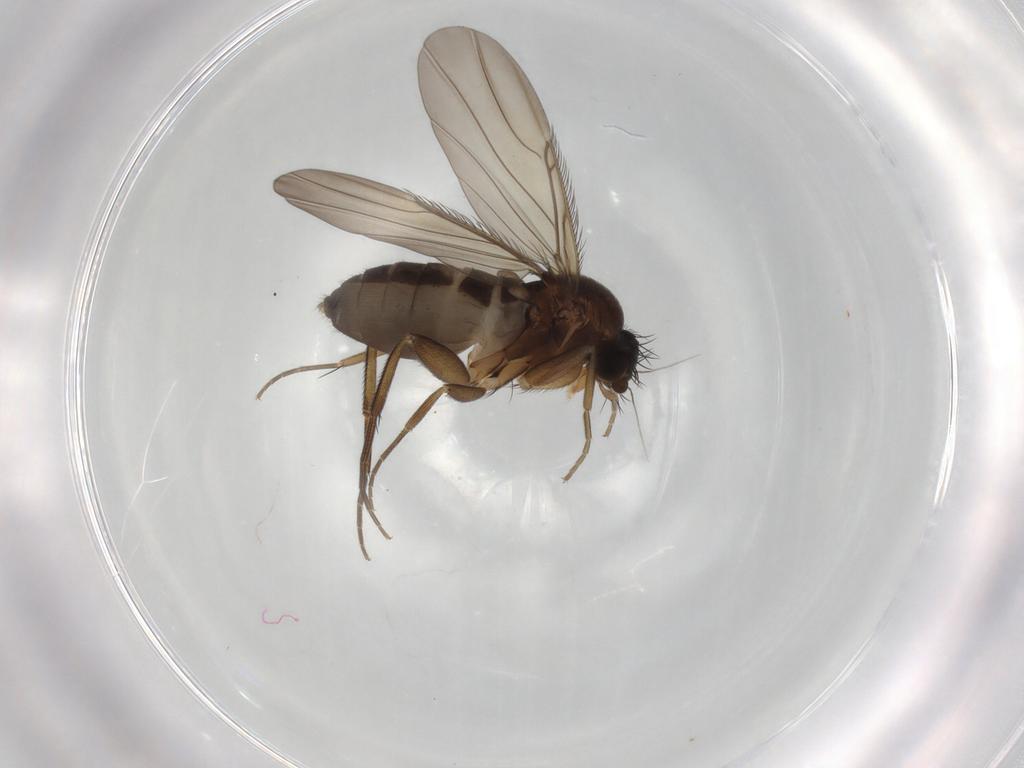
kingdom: Animalia
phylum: Arthropoda
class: Insecta
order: Diptera
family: Phoridae
